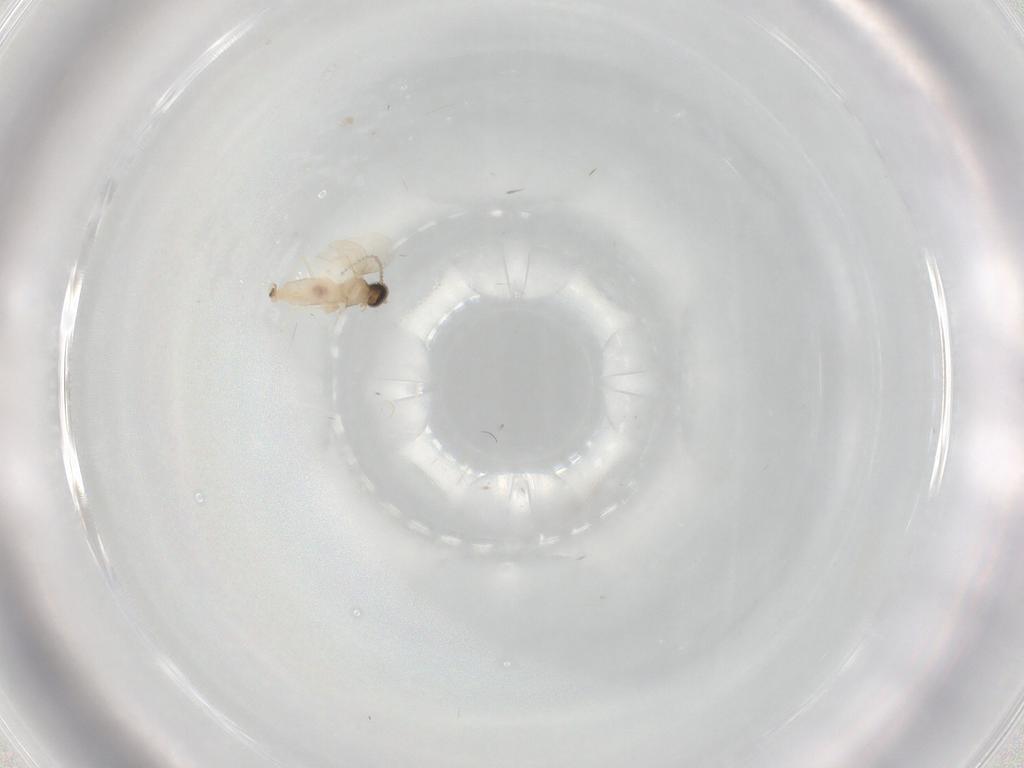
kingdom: Animalia
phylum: Arthropoda
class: Insecta
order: Diptera
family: Cecidomyiidae
